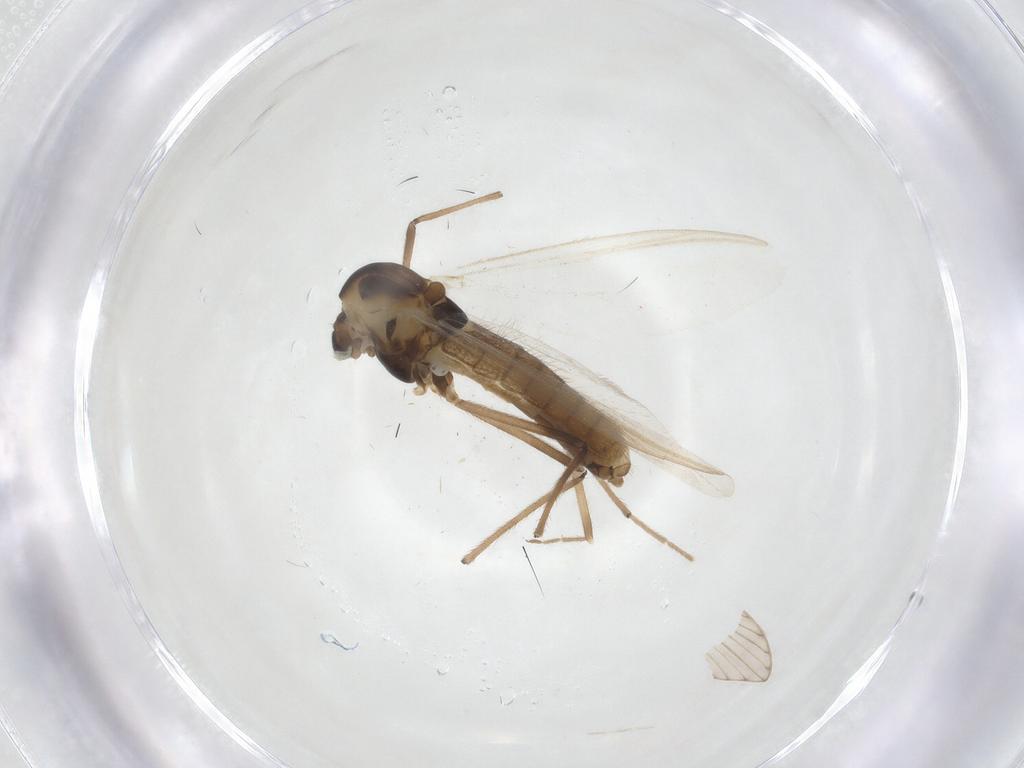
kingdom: Animalia
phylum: Arthropoda
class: Insecta
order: Diptera
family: Chironomidae
